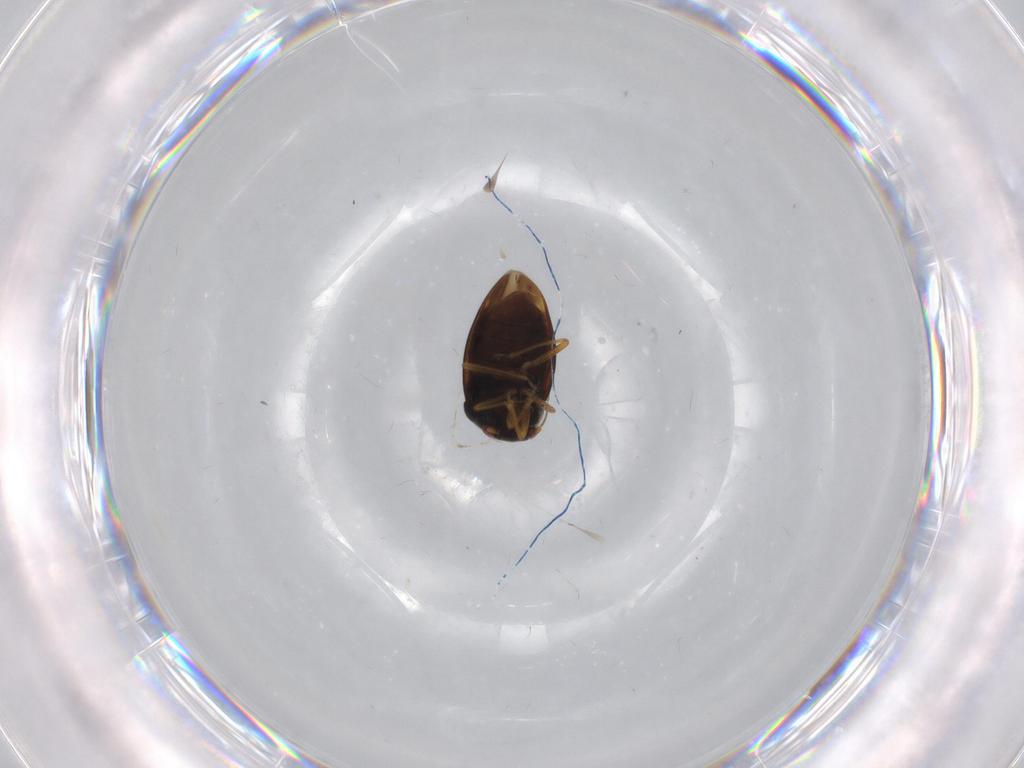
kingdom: Animalia
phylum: Arthropoda
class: Insecta
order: Hemiptera
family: Schizopteridae
